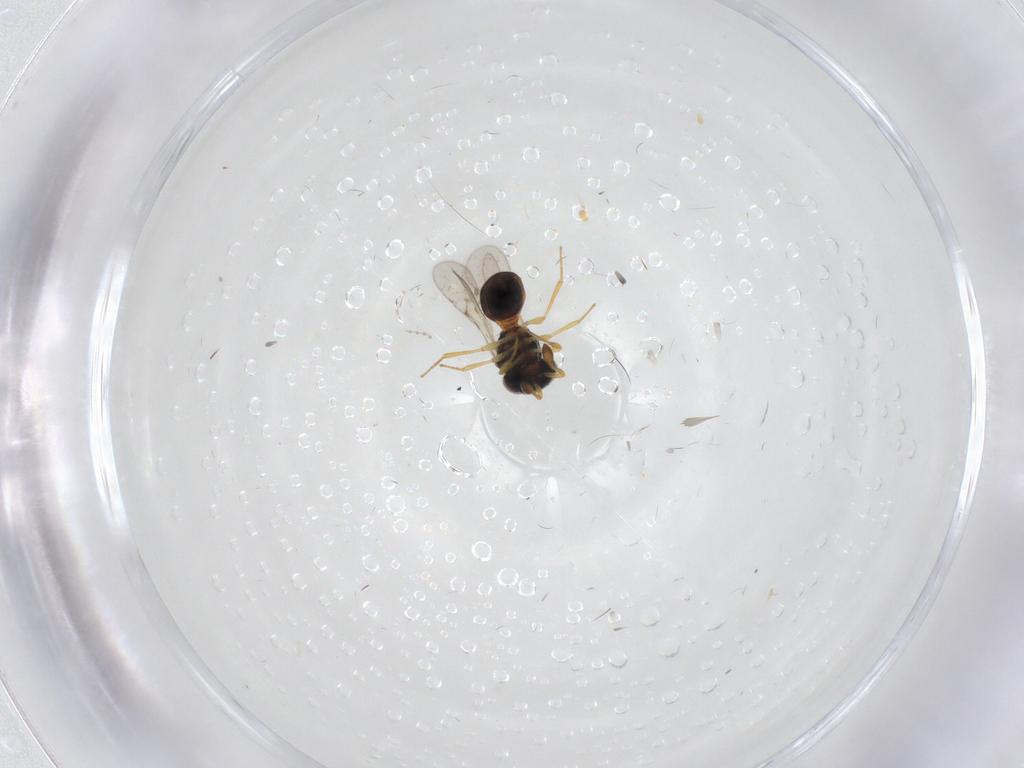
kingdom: Animalia
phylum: Arthropoda
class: Insecta
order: Hymenoptera
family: Scelionidae
